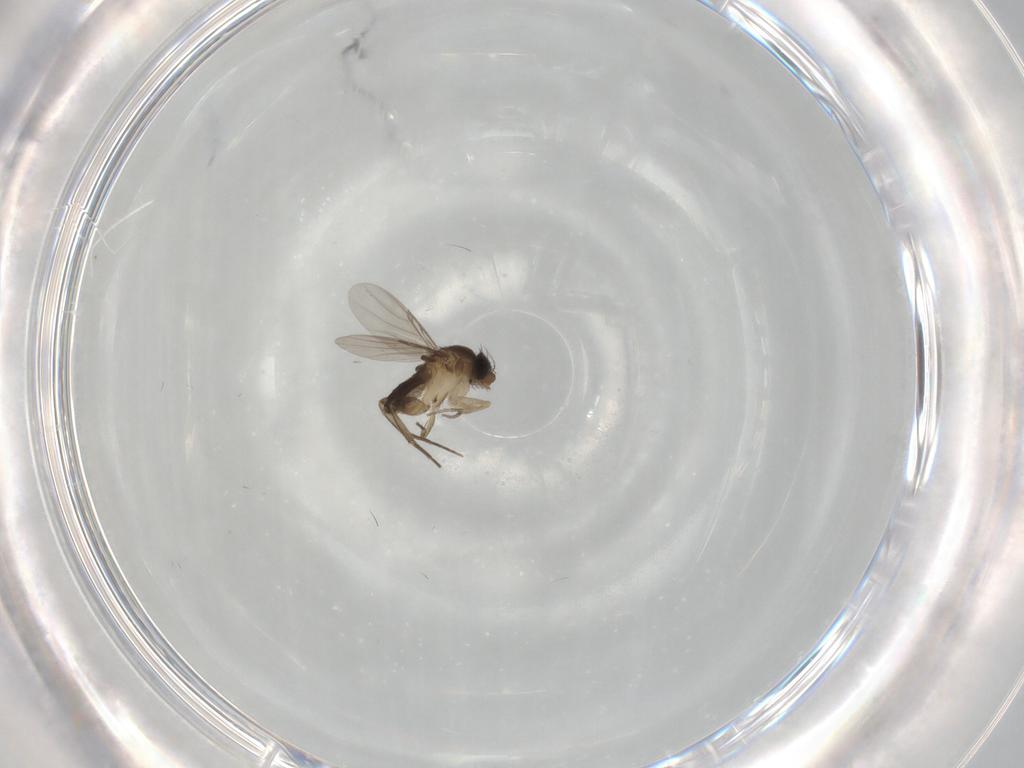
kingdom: Animalia
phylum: Arthropoda
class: Insecta
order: Diptera
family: Phoridae
